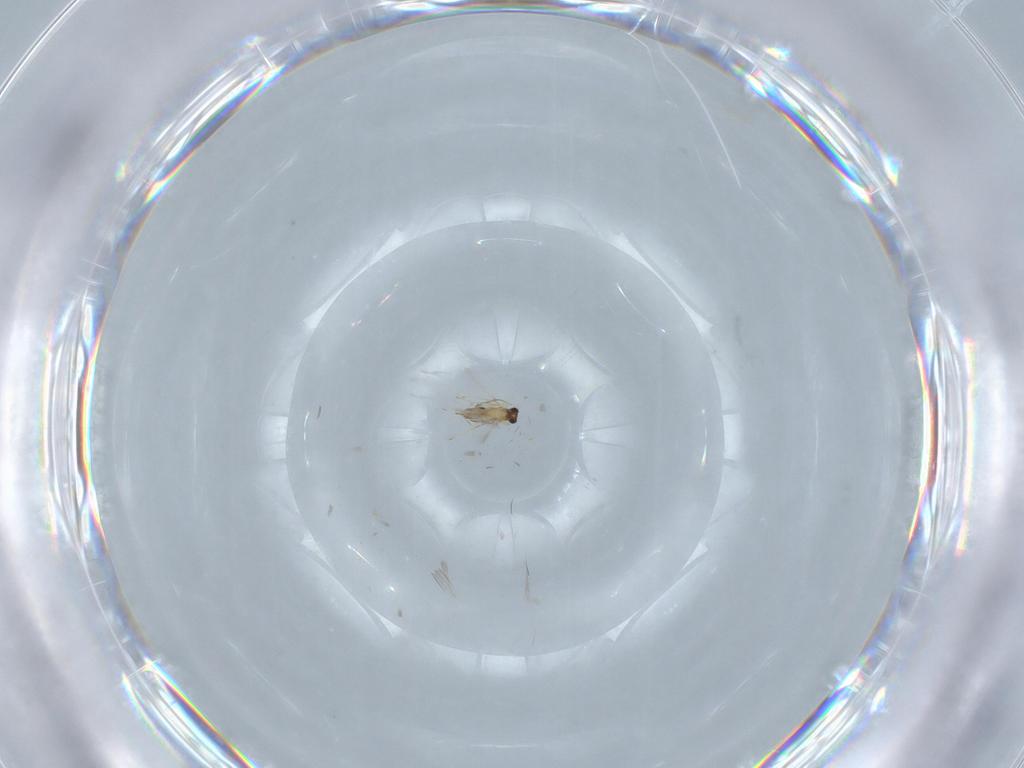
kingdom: Animalia
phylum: Arthropoda
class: Insecta
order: Hymenoptera
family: Mymaridae
